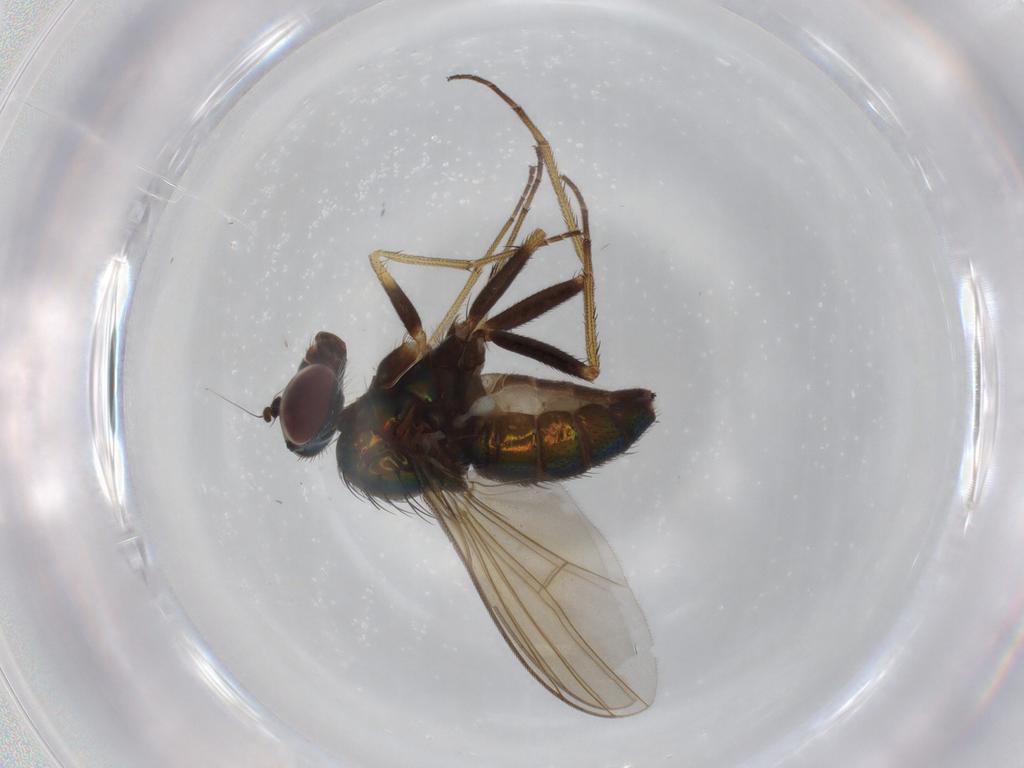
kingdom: Animalia
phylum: Arthropoda
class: Insecta
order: Diptera
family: Dolichopodidae
